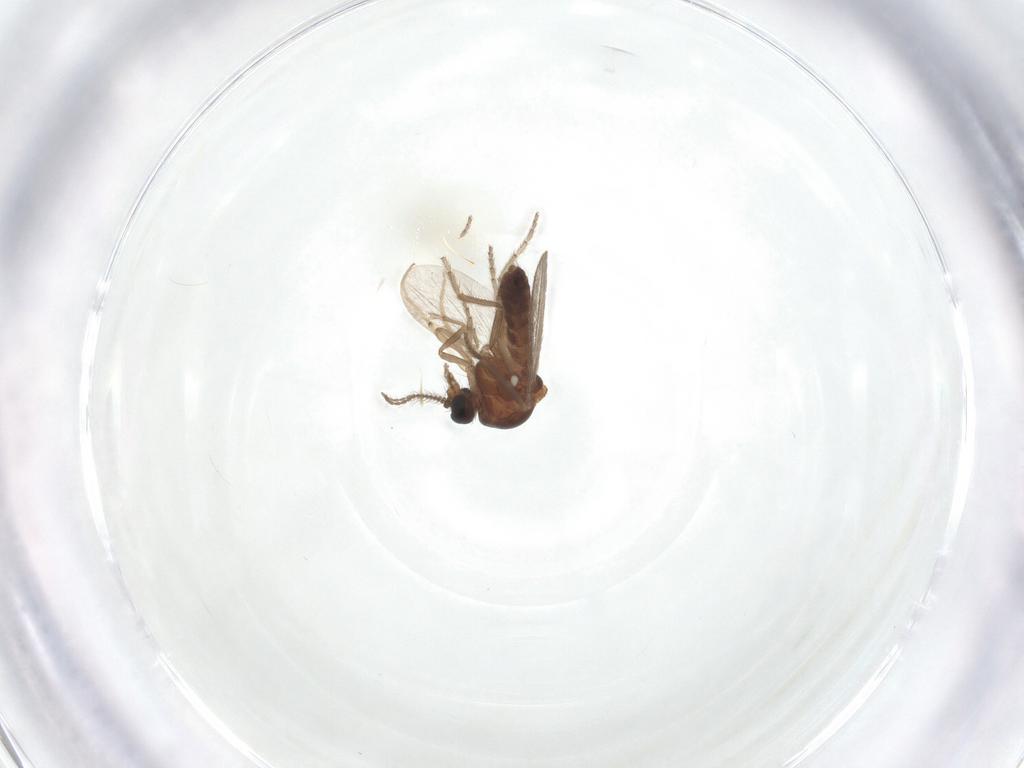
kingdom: Animalia
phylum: Arthropoda
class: Insecta
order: Diptera
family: Ceratopogonidae
